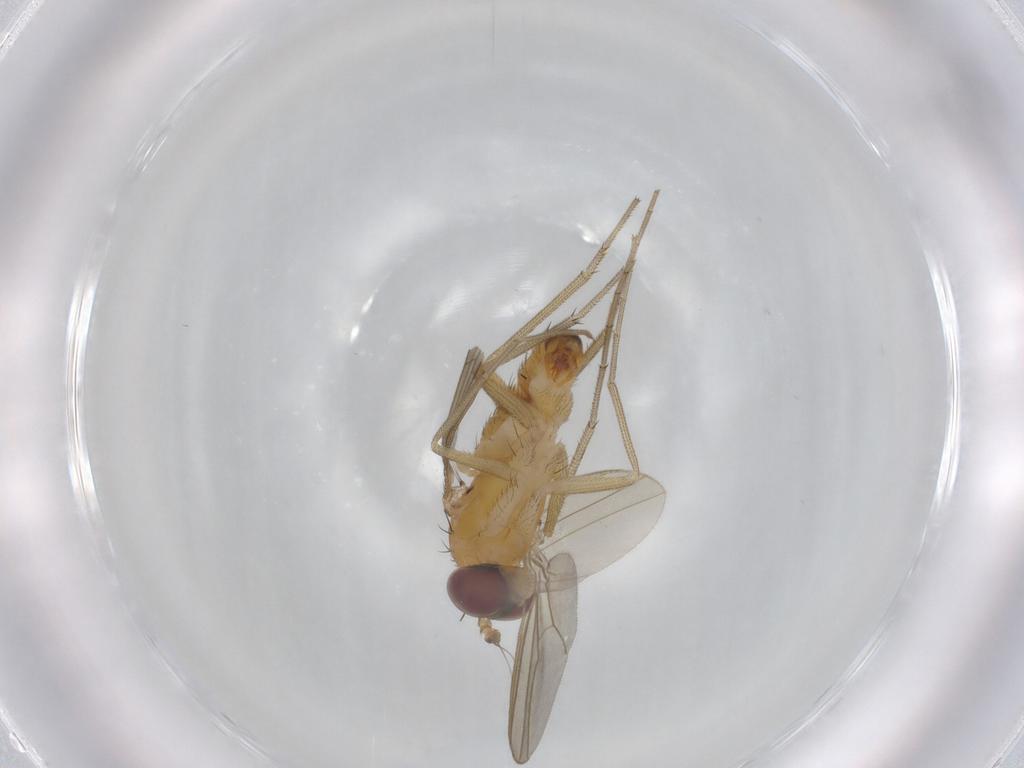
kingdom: Animalia
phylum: Arthropoda
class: Insecta
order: Diptera
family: Dolichopodidae
